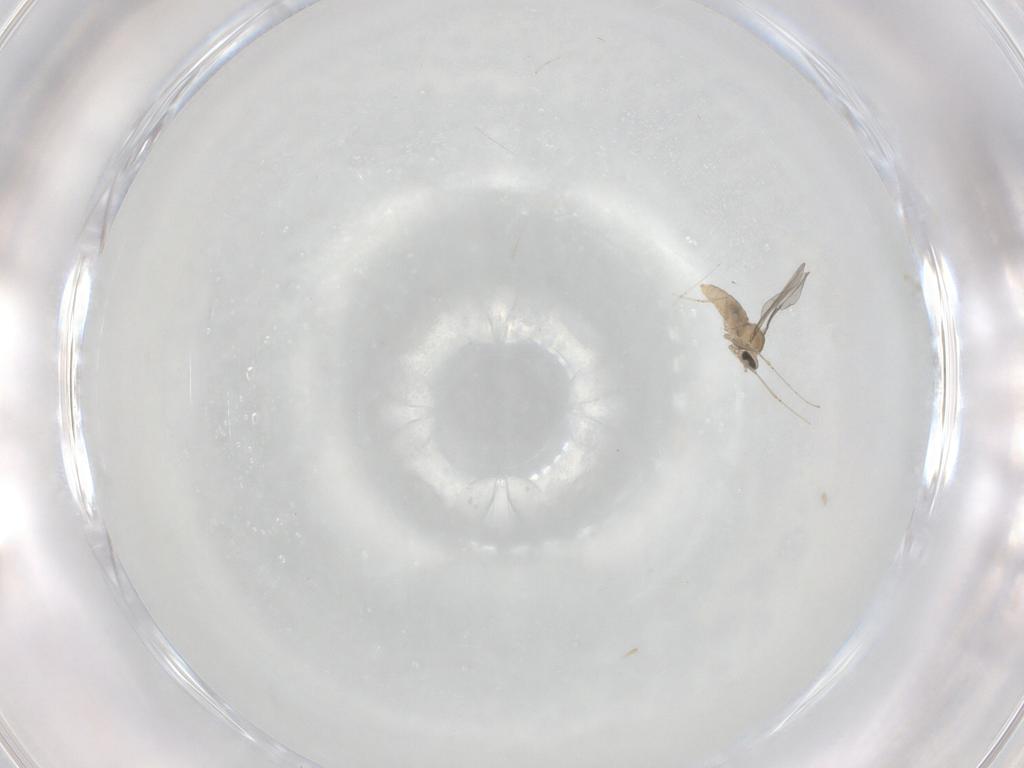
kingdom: Animalia
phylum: Arthropoda
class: Insecta
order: Diptera
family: Cecidomyiidae
